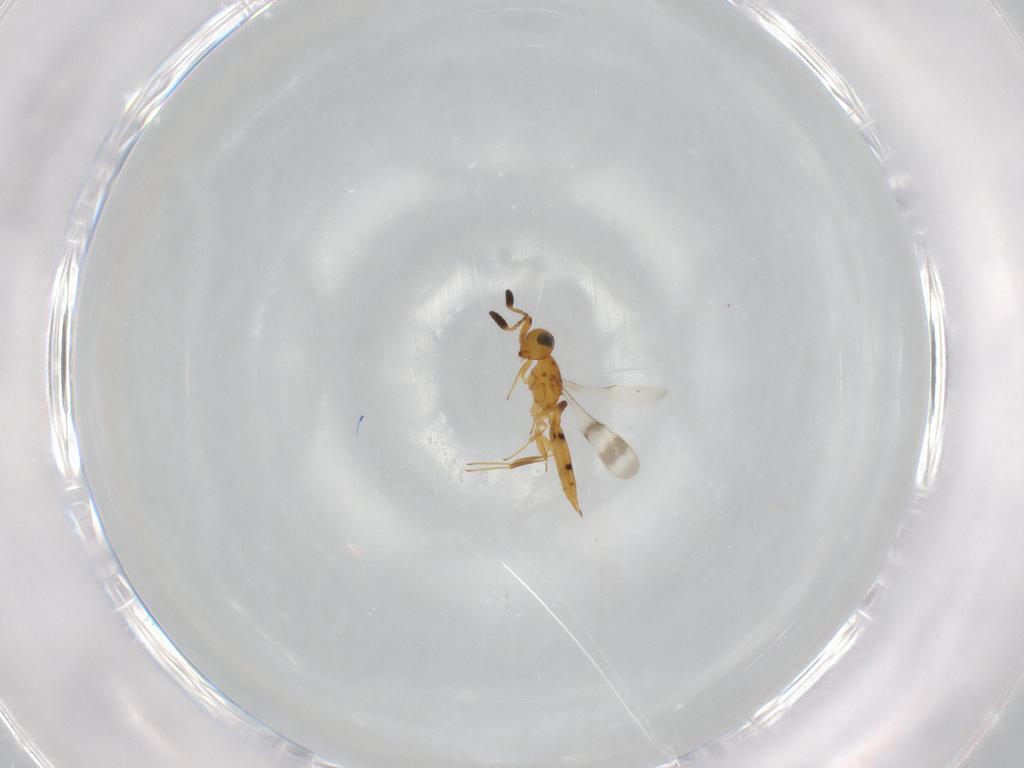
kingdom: Animalia
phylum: Arthropoda
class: Insecta
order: Hymenoptera
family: Scelionidae
